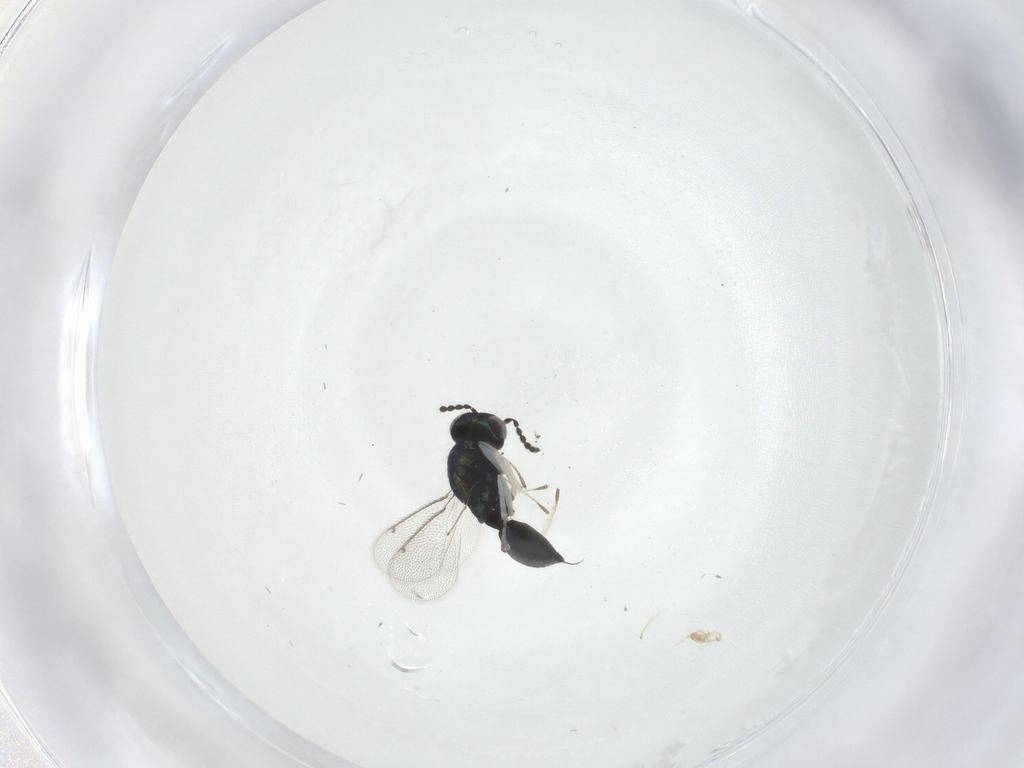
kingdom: Animalia
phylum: Arthropoda
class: Insecta
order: Hymenoptera
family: Eulophidae
